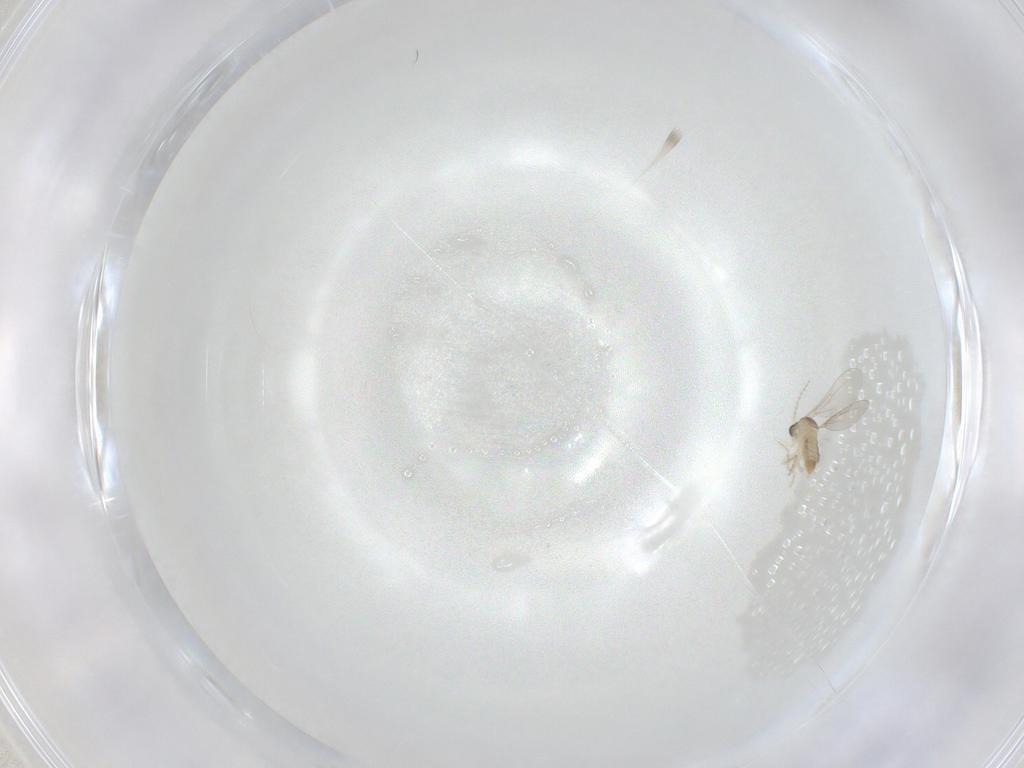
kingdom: Animalia
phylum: Arthropoda
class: Insecta
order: Diptera
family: Cecidomyiidae
